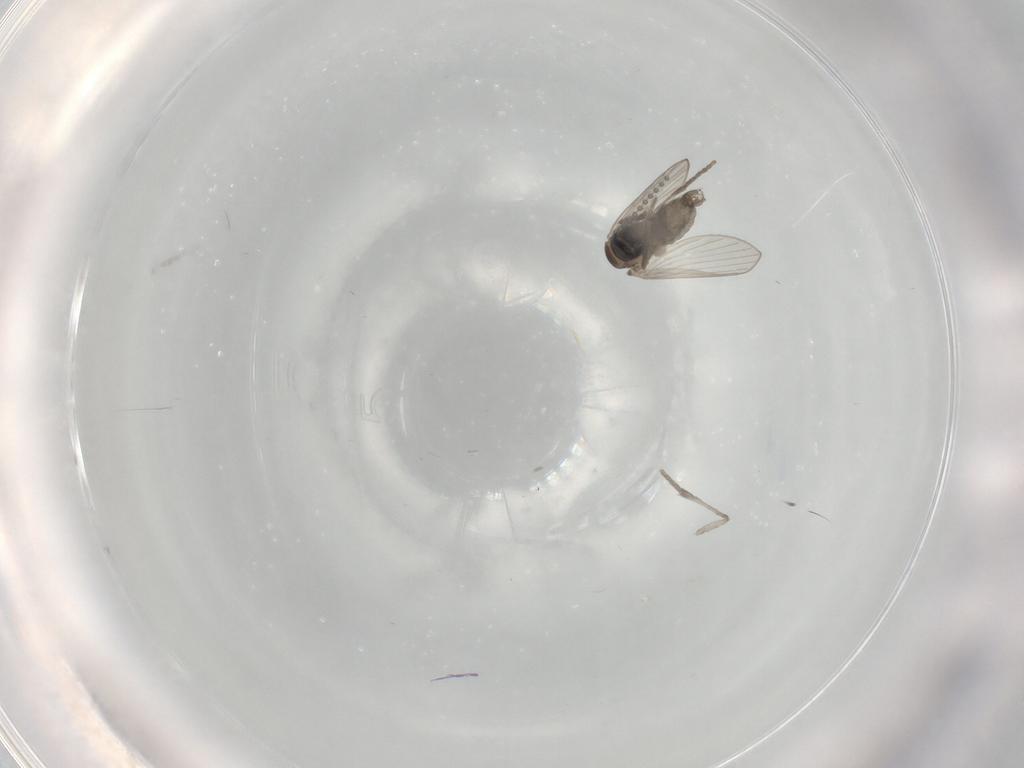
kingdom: Animalia
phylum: Arthropoda
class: Insecta
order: Diptera
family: Psychodidae
